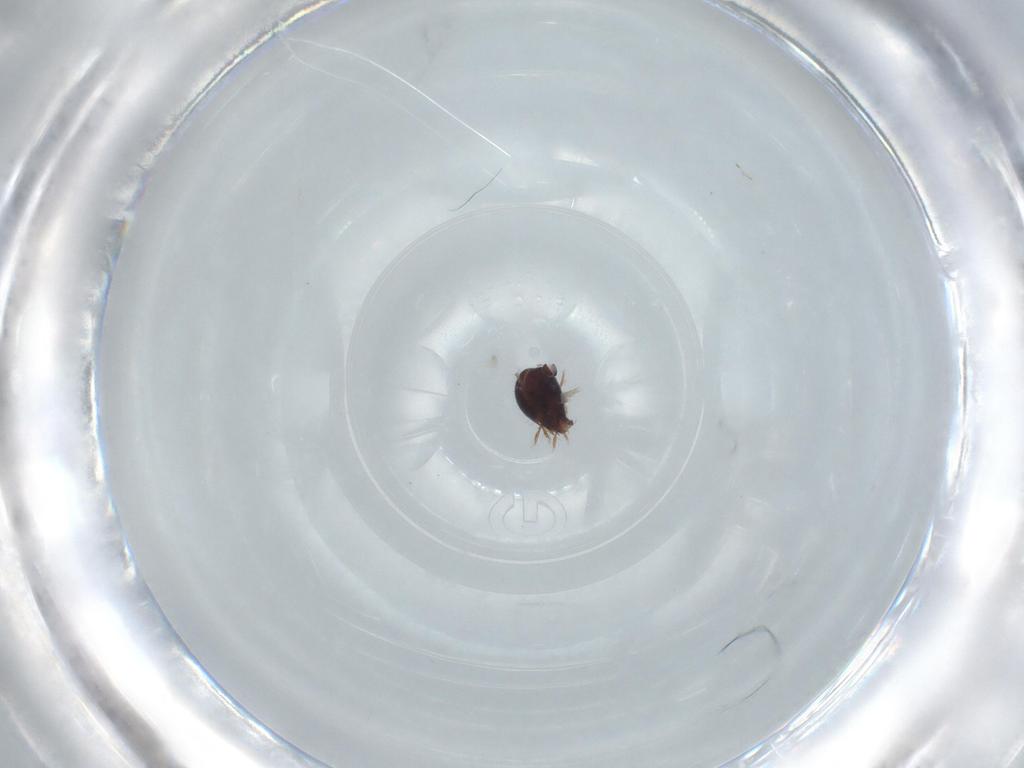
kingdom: Animalia
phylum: Arthropoda
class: Arachnida
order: Sarcoptiformes
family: Ceratozetidae
